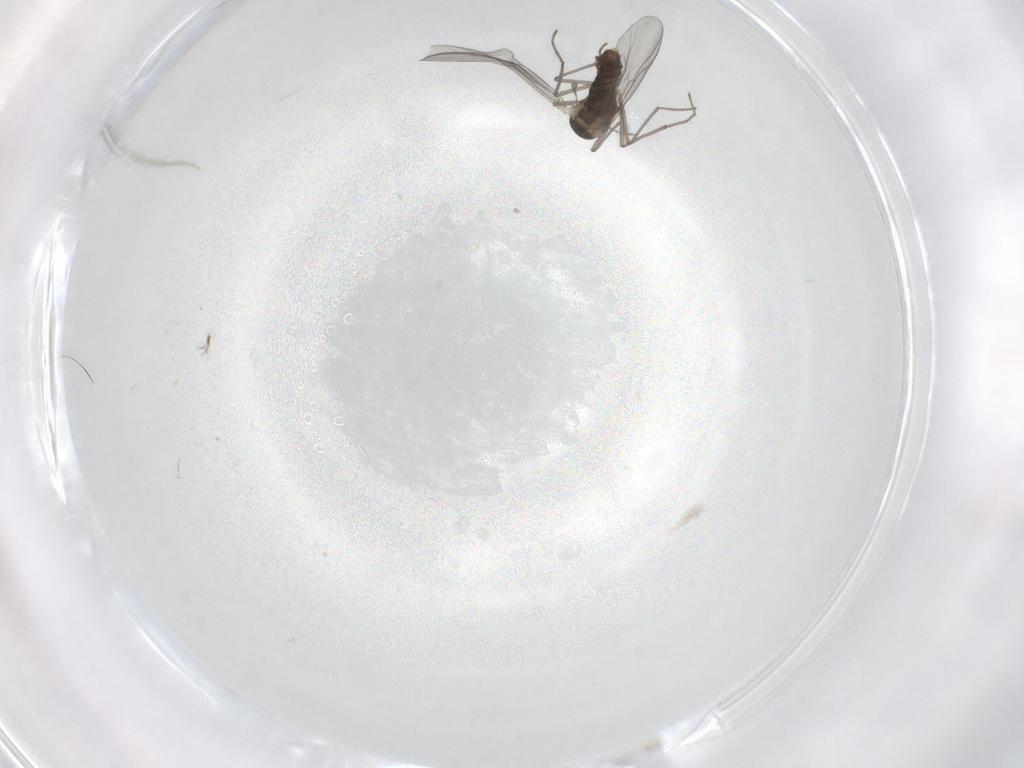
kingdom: Animalia
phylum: Arthropoda
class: Insecta
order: Diptera
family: Chironomidae
